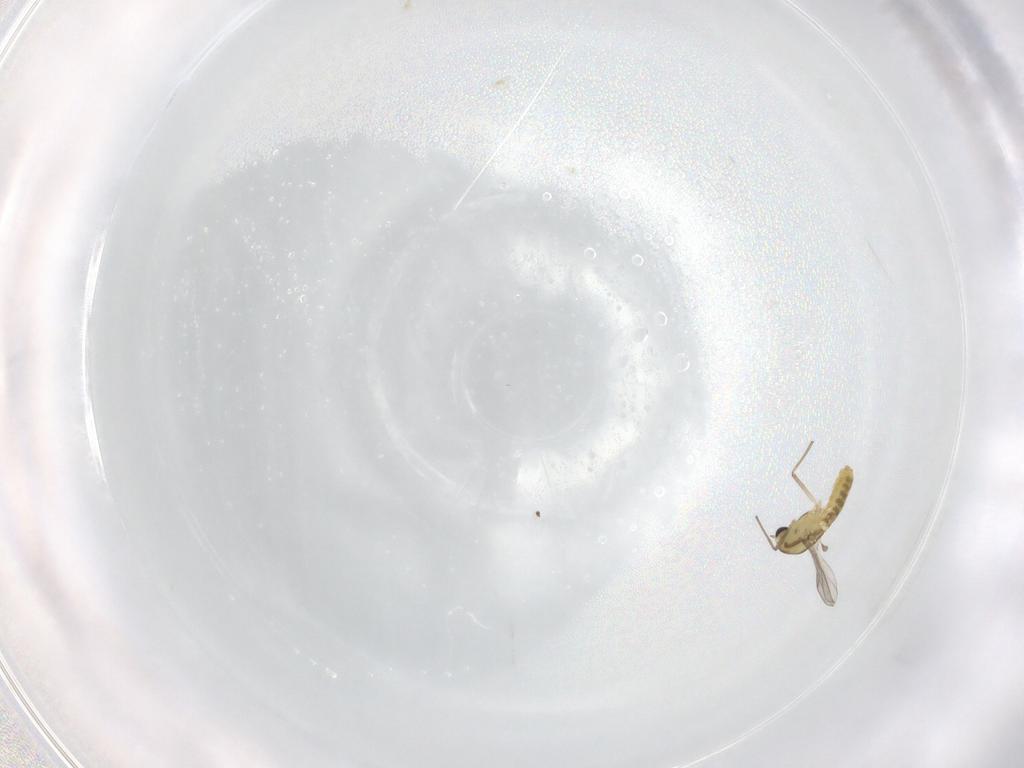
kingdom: Animalia
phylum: Arthropoda
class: Insecta
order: Diptera
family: Chironomidae
